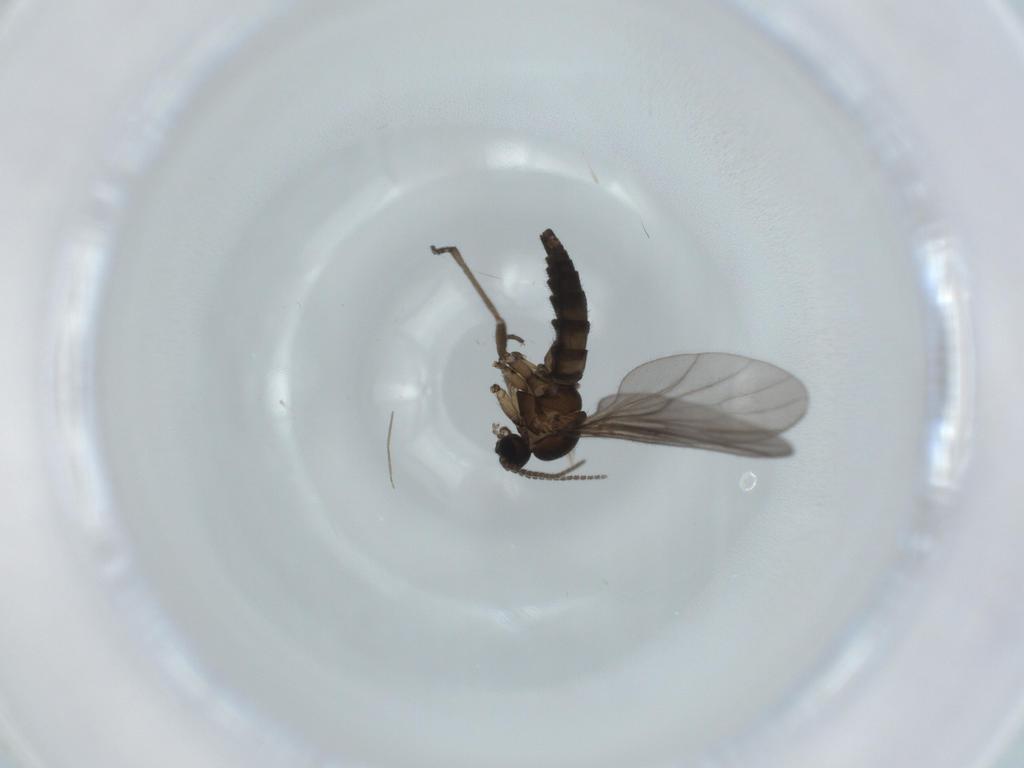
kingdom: Animalia
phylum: Arthropoda
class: Insecta
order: Diptera
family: Sciaridae
